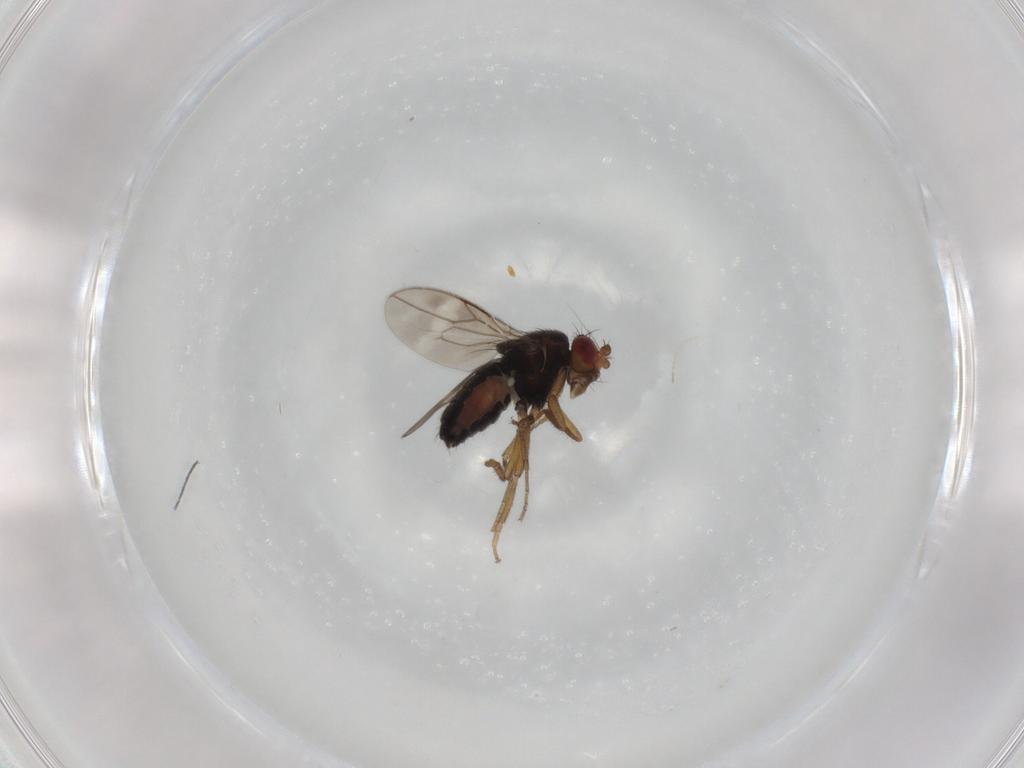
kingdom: Animalia
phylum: Arthropoda
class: Insecta
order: Diptera
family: Sphaeroceridae
